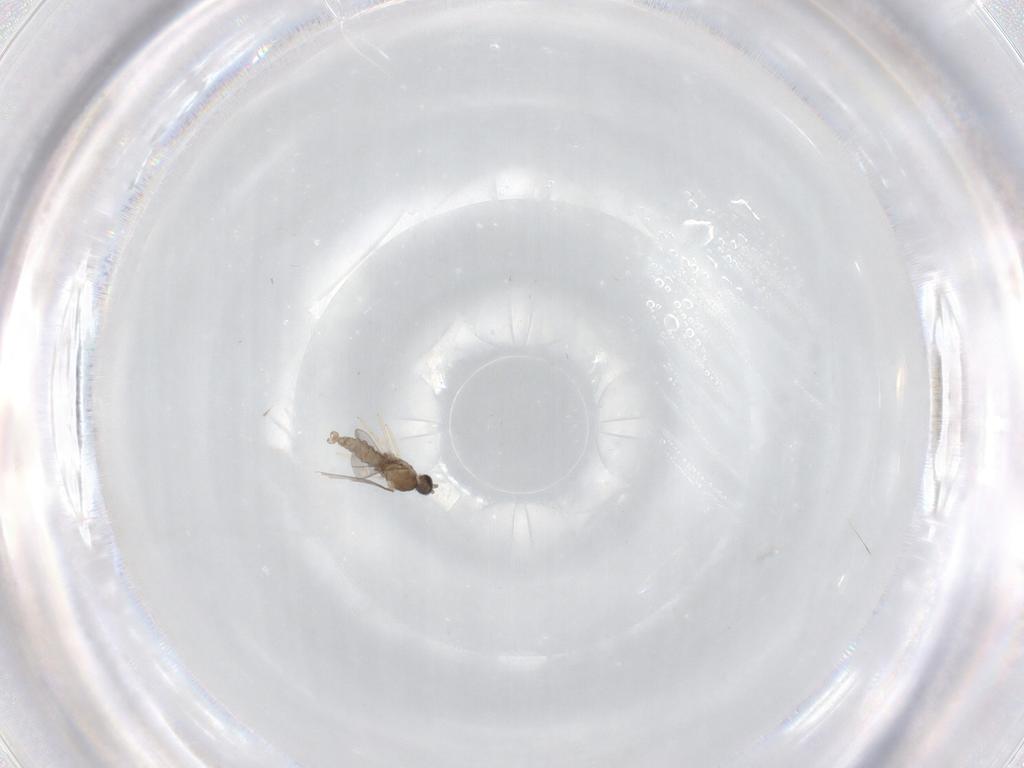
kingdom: Animalia
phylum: Arthropoda
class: Insecta
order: Diptera
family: Cecidomyiidae
